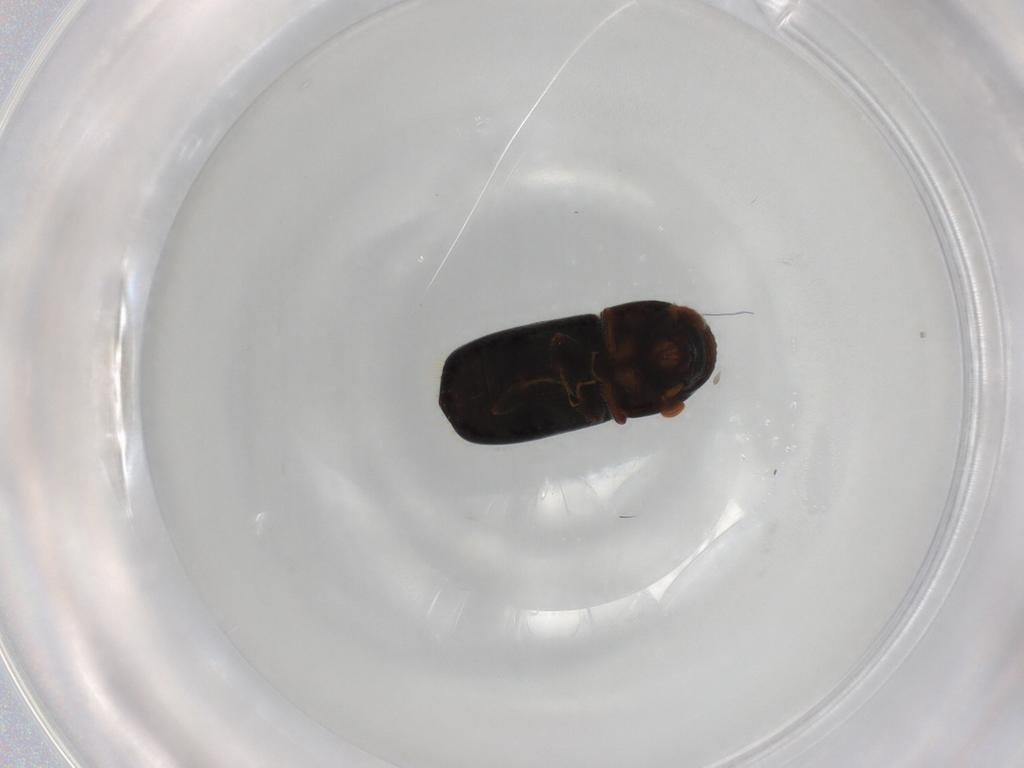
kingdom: Animalia
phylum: Arthropoda
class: Insecta
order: Coleoptera
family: Curculionidae
